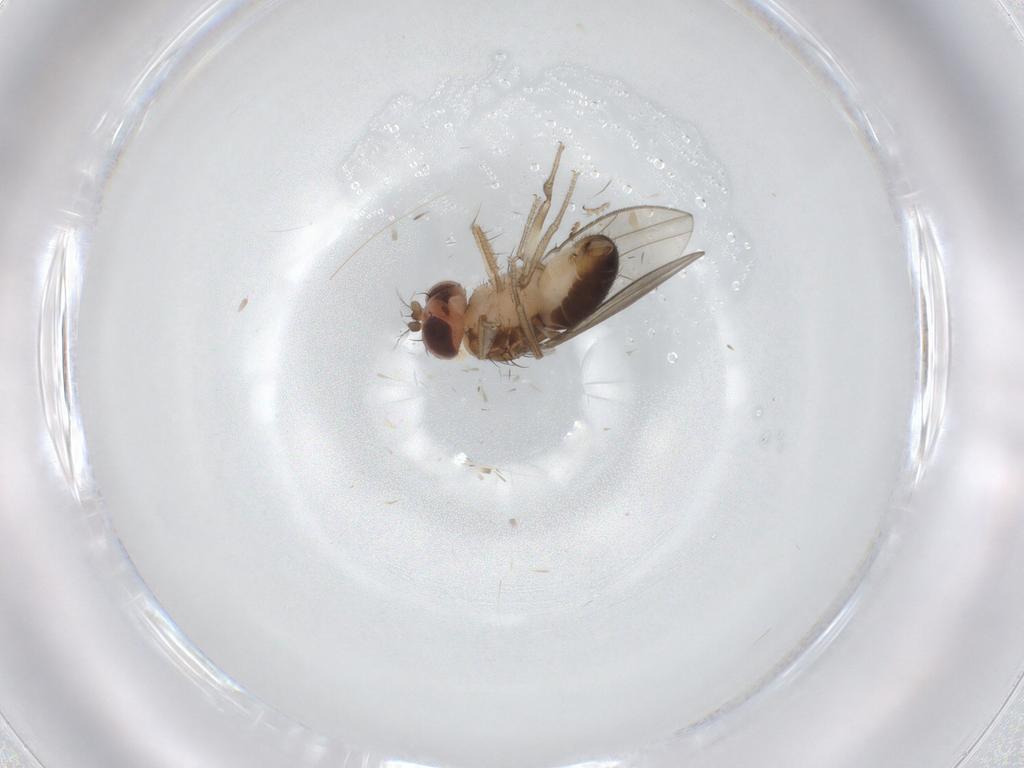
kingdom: Animalia
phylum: Arthropoda
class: Insecta
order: Diptera
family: Drosophilidae
